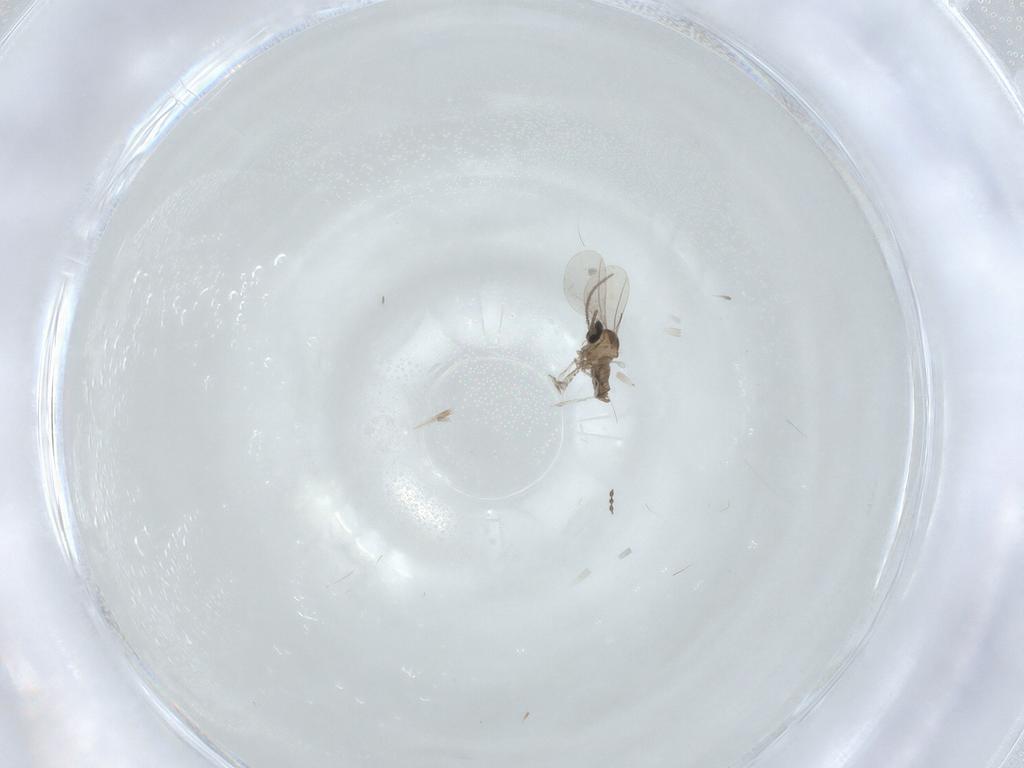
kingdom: Animalia
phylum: Arthropoda
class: Insecta
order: Diptera
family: Cecidomyiidae
